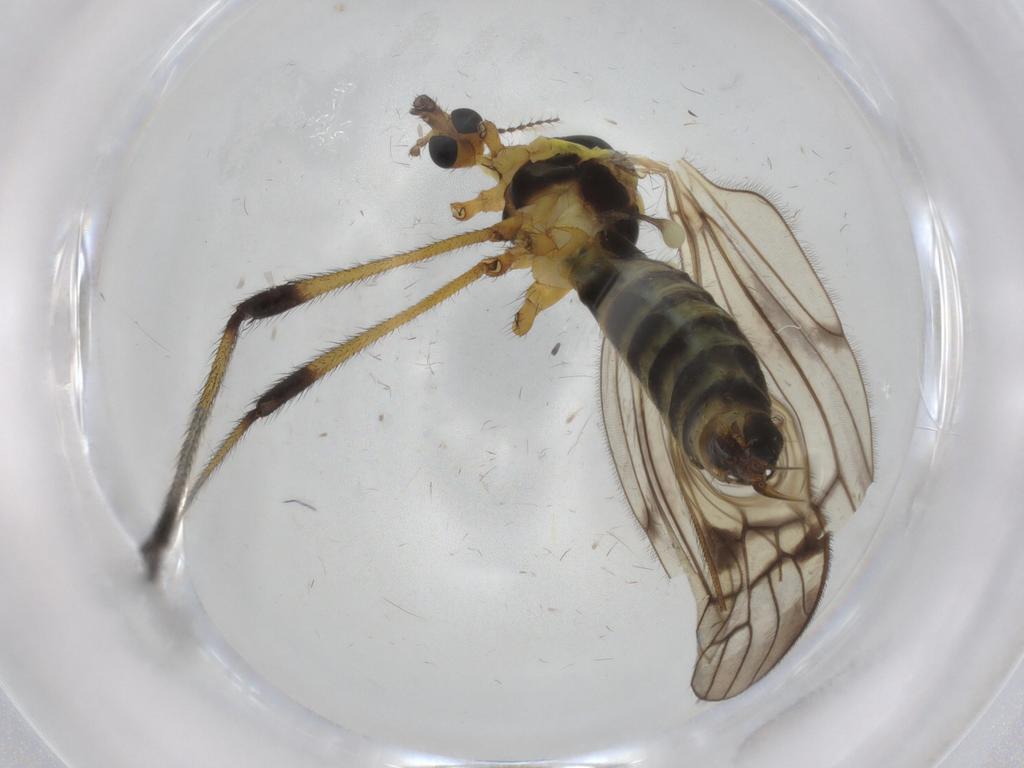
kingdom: Animalia
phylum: Arthropoda
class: Insecta
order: Diptera
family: Limoniidae
